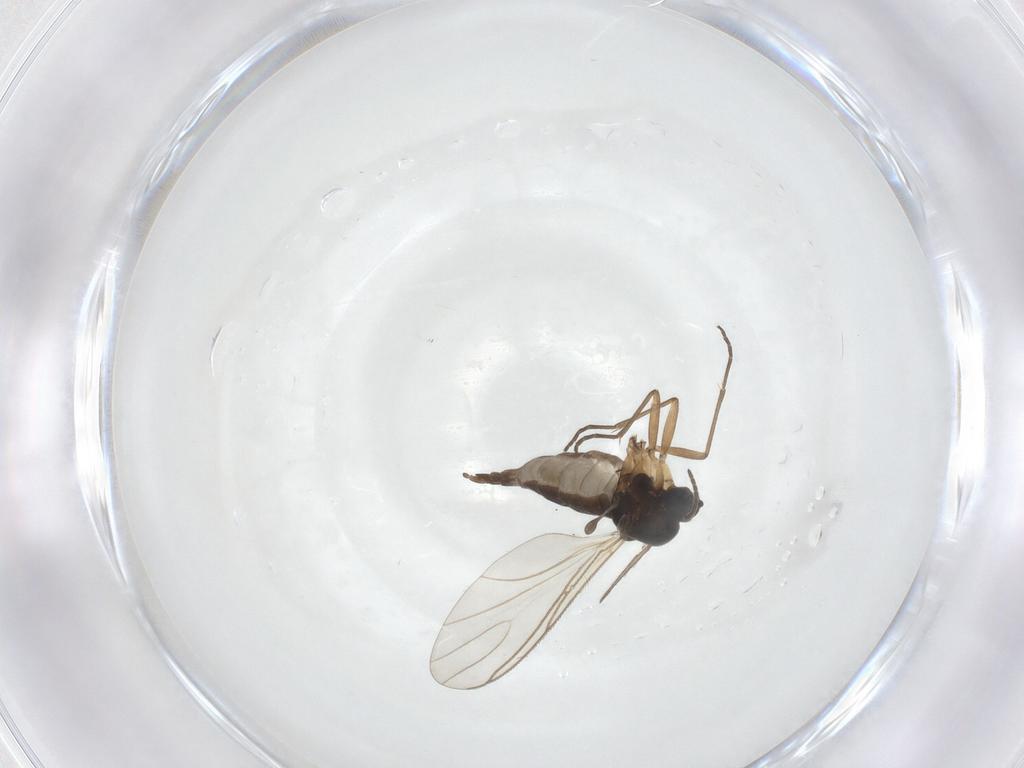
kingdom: Animalia
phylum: Arthropoda
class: Insecta
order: Diptera
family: Sciaridae
